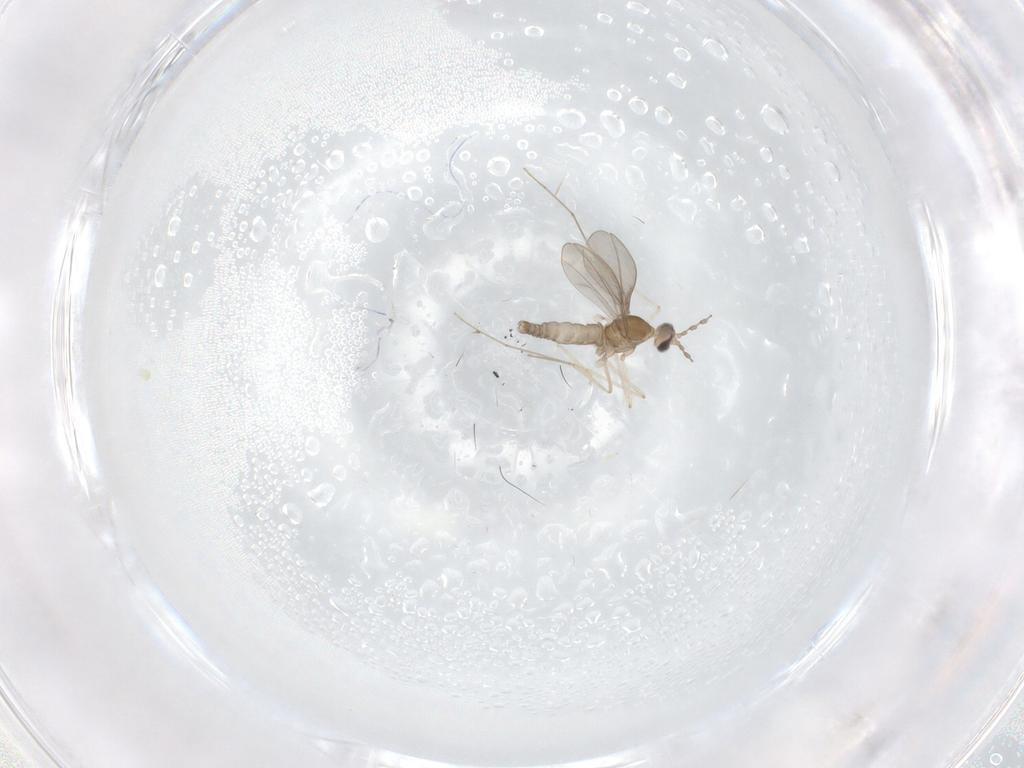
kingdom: Animalia
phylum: Arthropoda
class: Insecta
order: Diptera
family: Cecidomyiidae
